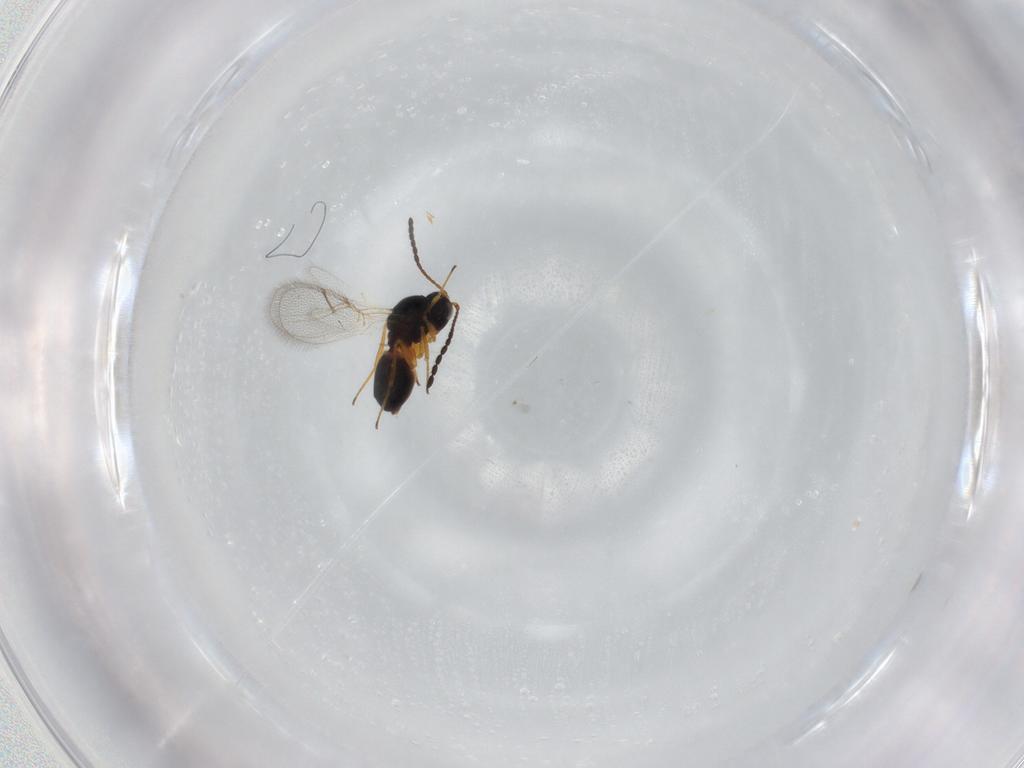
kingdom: Animalia
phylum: Arthropoda
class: Insecta
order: Hymenoptera
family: Figitidae
